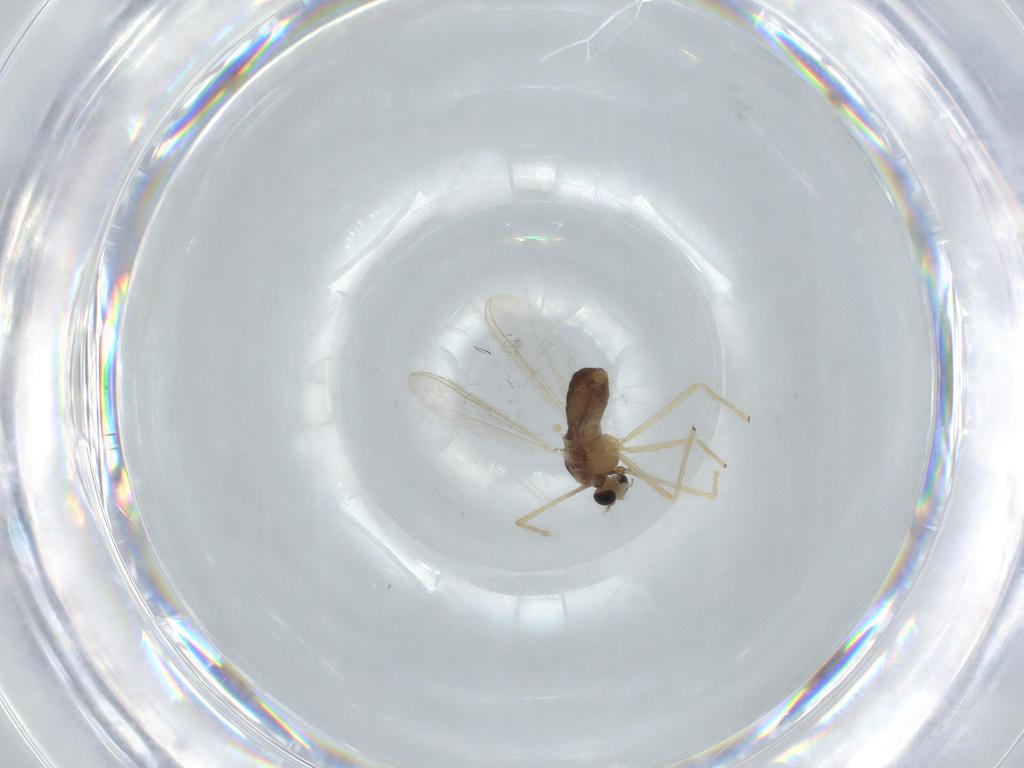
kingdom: Animalia
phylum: Arthropoda
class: Insecta
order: Diptera
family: Chironomidae
